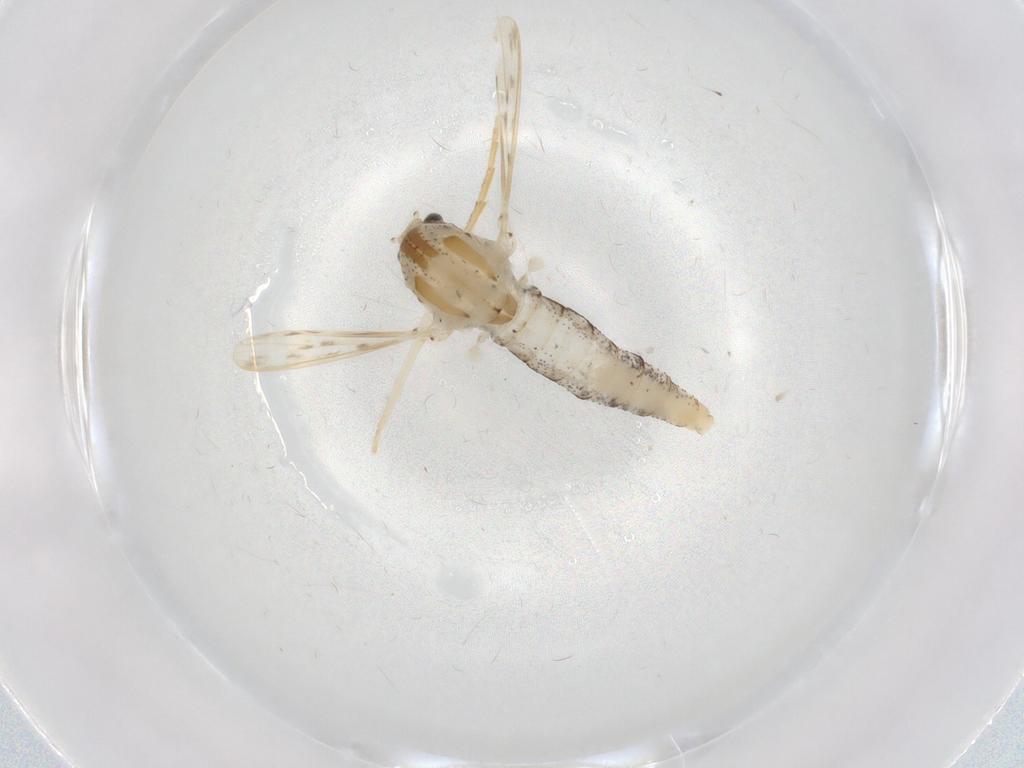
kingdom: Animalia
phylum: Arthropoda
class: Insecta
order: Diptera
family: Chaoboridae
